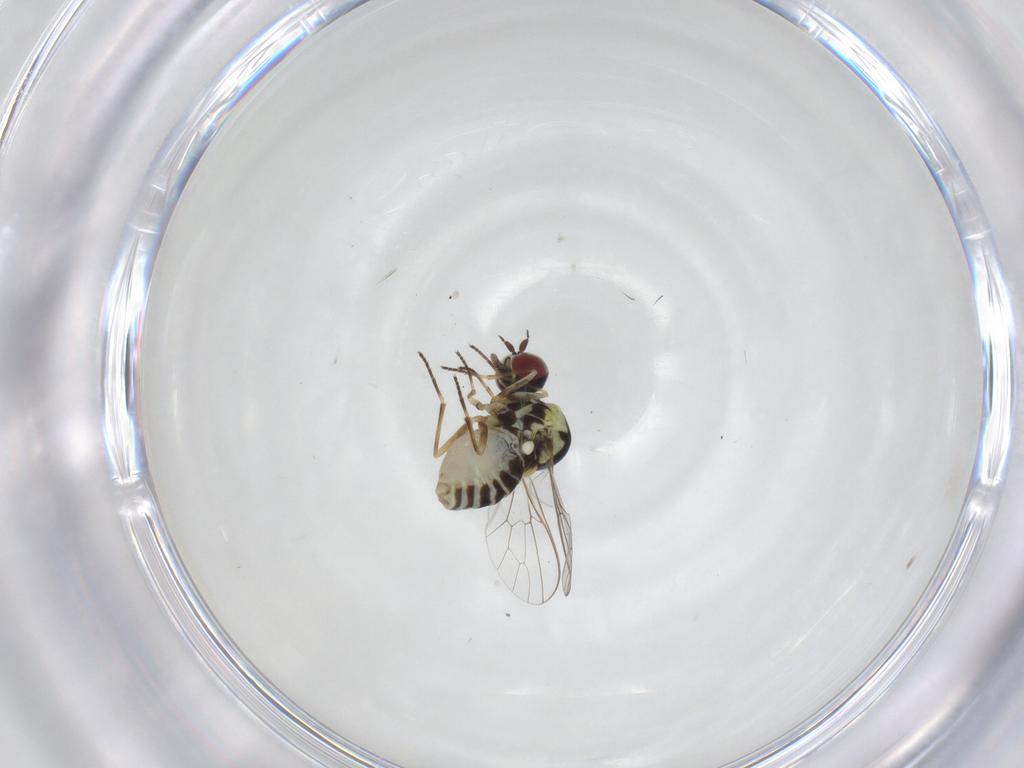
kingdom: Animalia
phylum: Arthropoda
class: Insecta
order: Diptera
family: Bombyliidae
